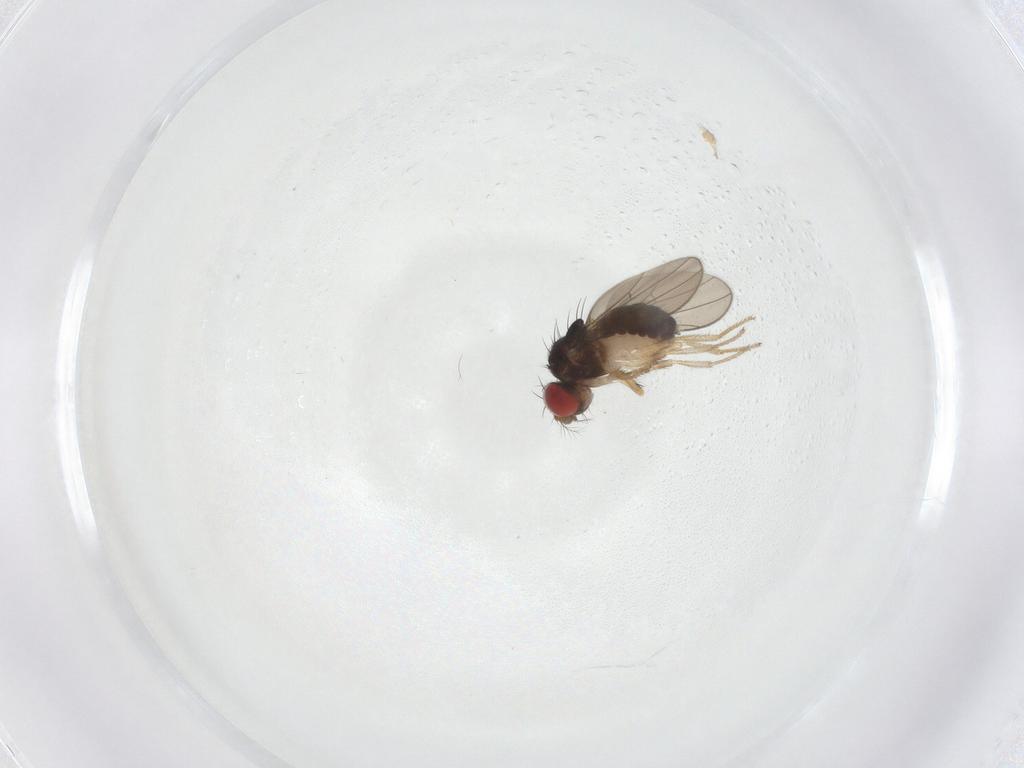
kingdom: Animalia
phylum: Arthropoda
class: Insecta
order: Diptera
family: Drosophilidae
